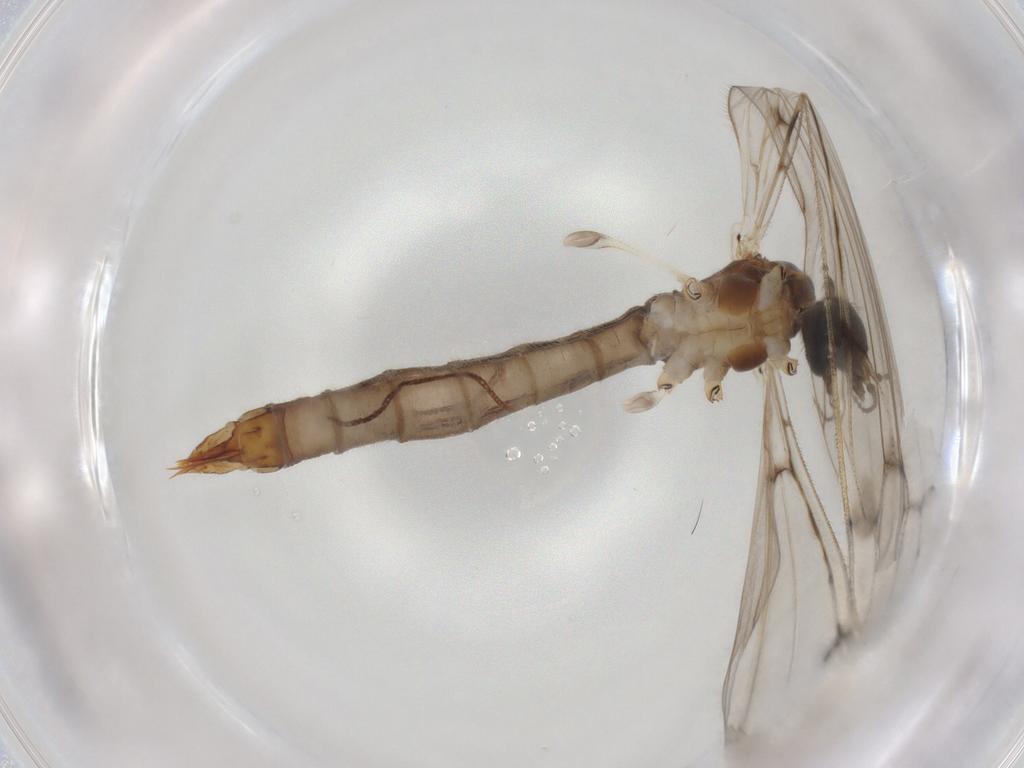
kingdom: Animalia
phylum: Arthropoda
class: Insecta
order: Diptera
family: Limoniidae
